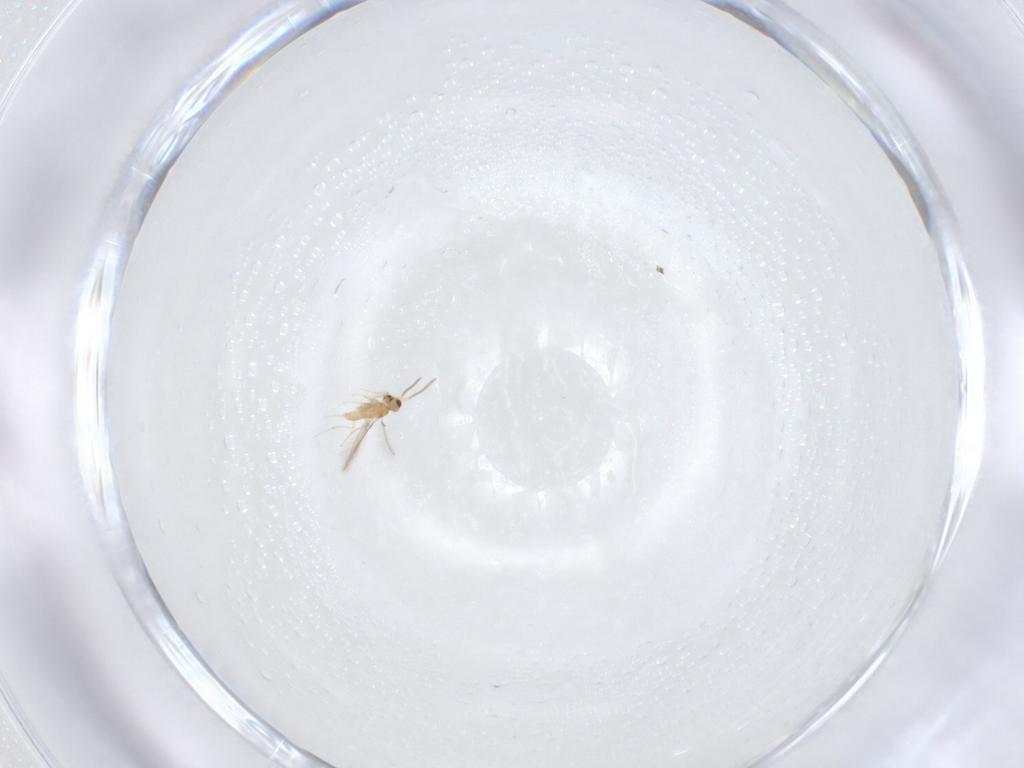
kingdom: Animalia
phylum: Arthropoda
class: Insecta
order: Hymenoptera
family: Mymaridae
